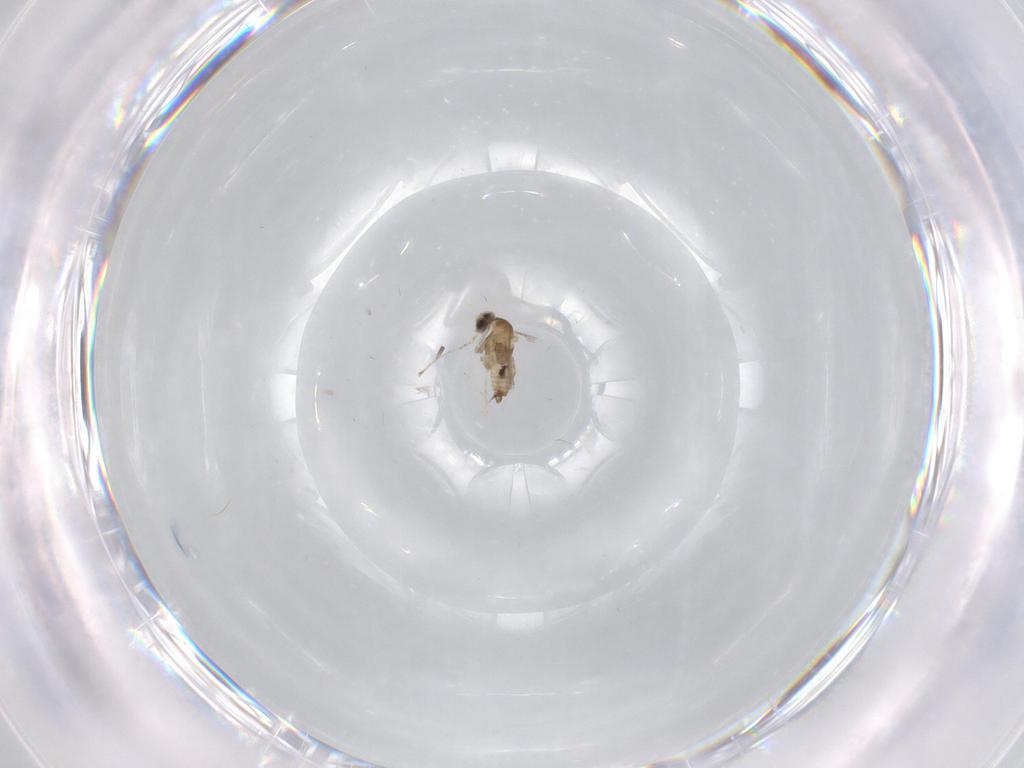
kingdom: Animalia
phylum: Arthropoda
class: Insecta
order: Diptera
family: Cecidomyiidae
